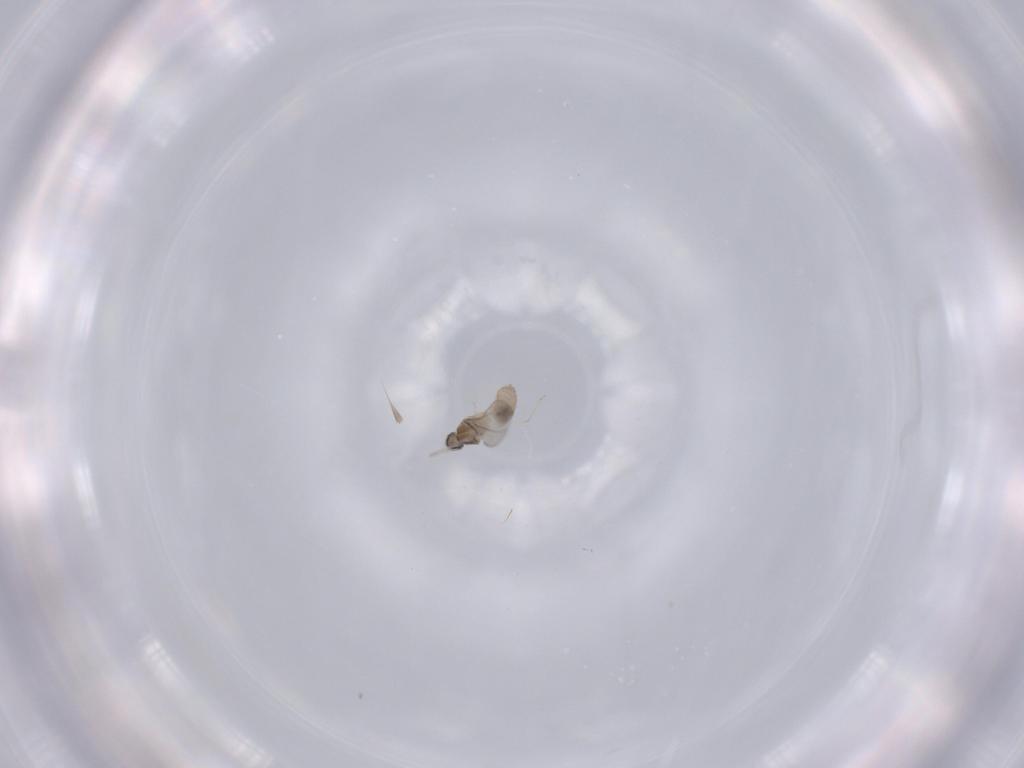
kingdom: Animalia
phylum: Arthropoda
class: Insecta
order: Diptera
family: Cecidomyiidae
